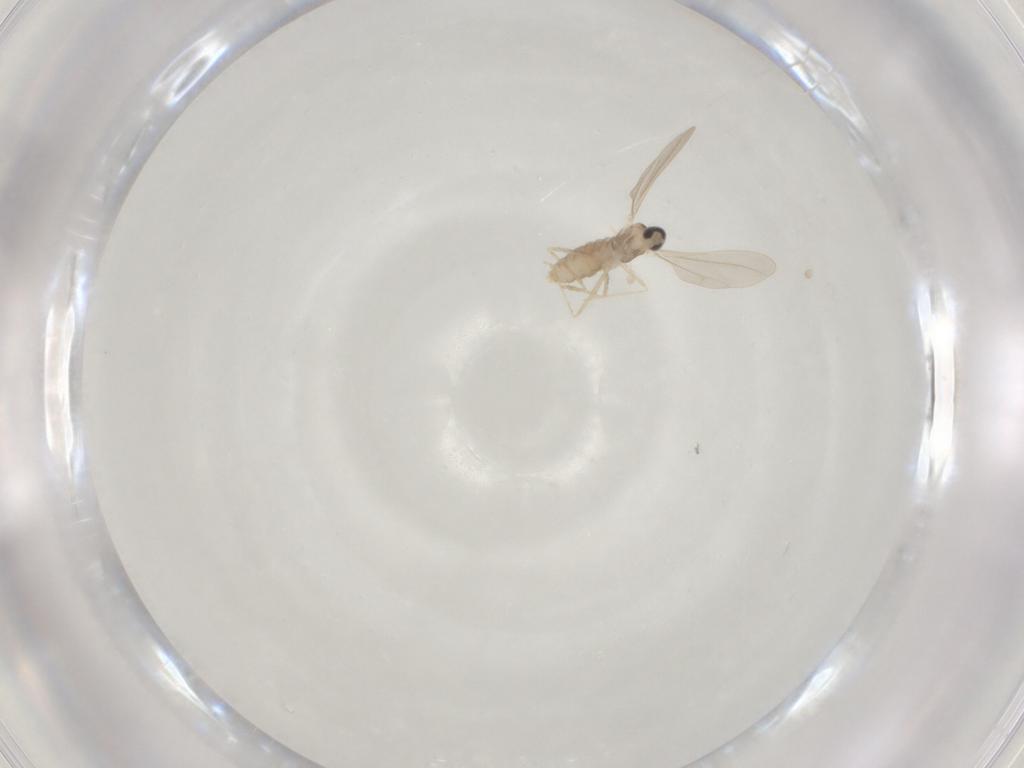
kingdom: Animalia
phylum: Arthropoda
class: Insecta
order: Diptera
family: Cecidomyiidae
